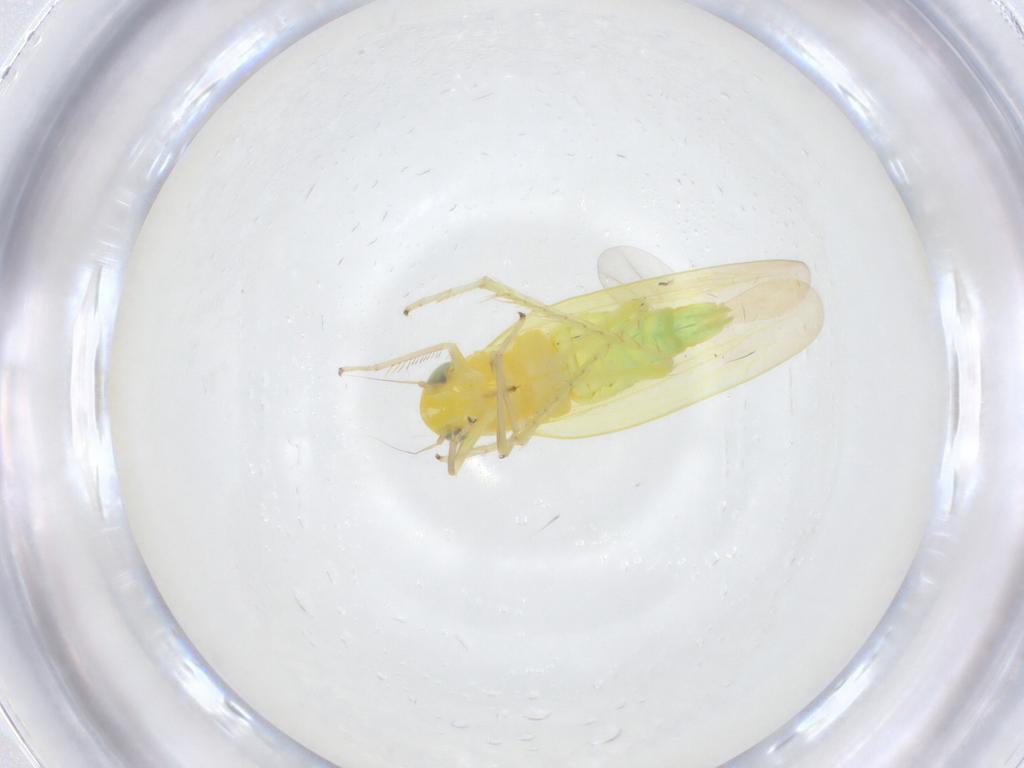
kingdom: Animalia
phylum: Arthropoda
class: Insecta
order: Hemiptera
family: Cicadellidae
